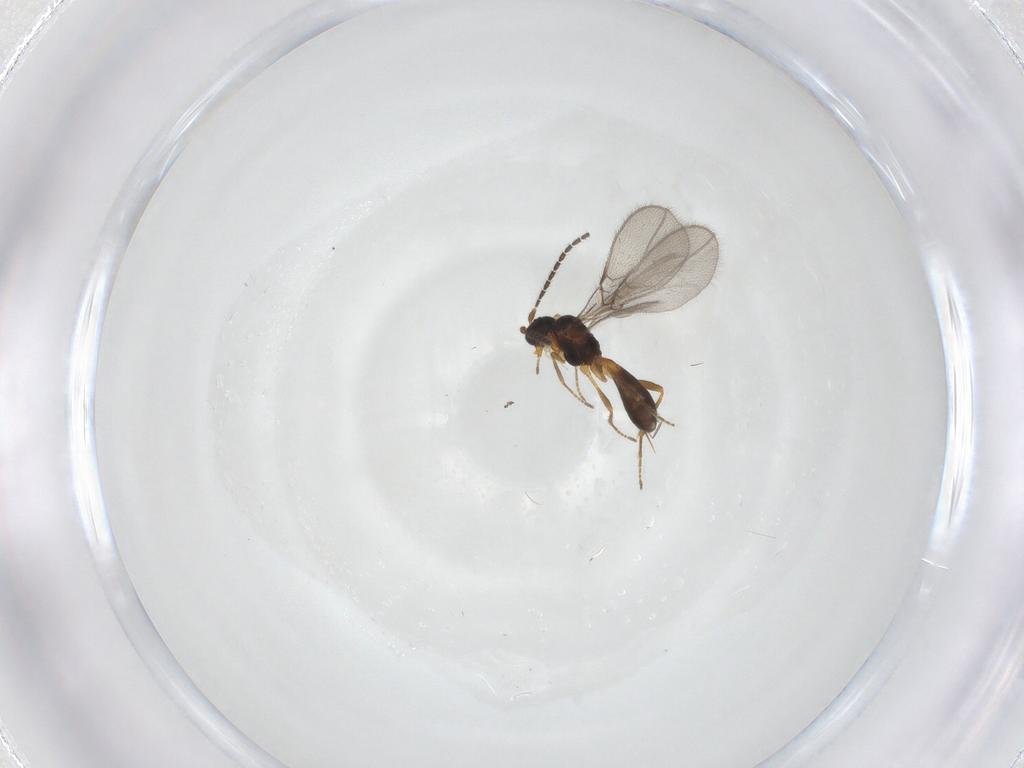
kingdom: Animalia
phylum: Arthropoda
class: Insecta
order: Hymenoptera
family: Braconidae
